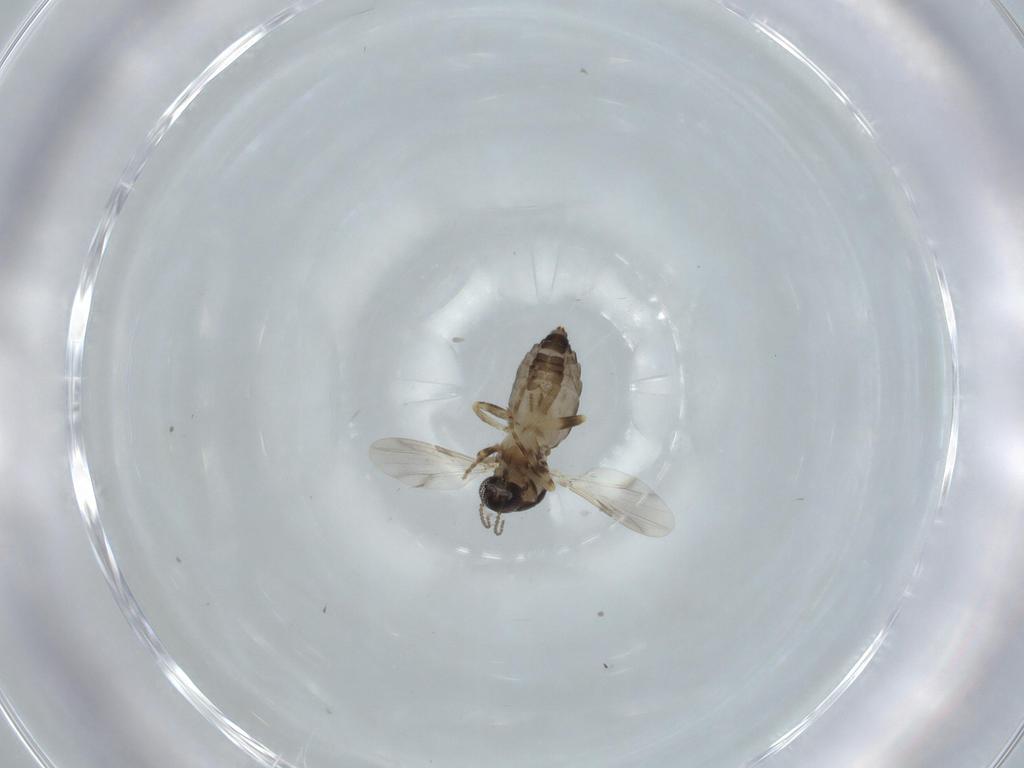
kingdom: Animalia
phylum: Arthropoda
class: Insecta
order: Diptera
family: Ceratopogonidae
